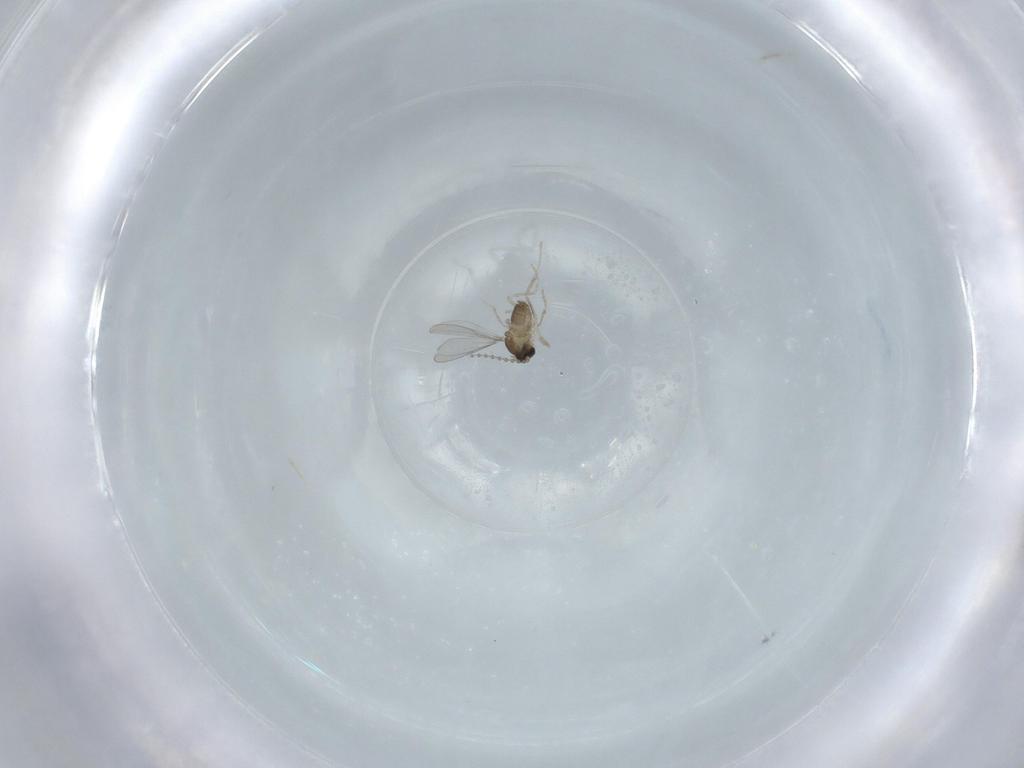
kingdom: Animalia
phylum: Arthropoda
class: Insecta
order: Diptera
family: Cecidomyiidae
